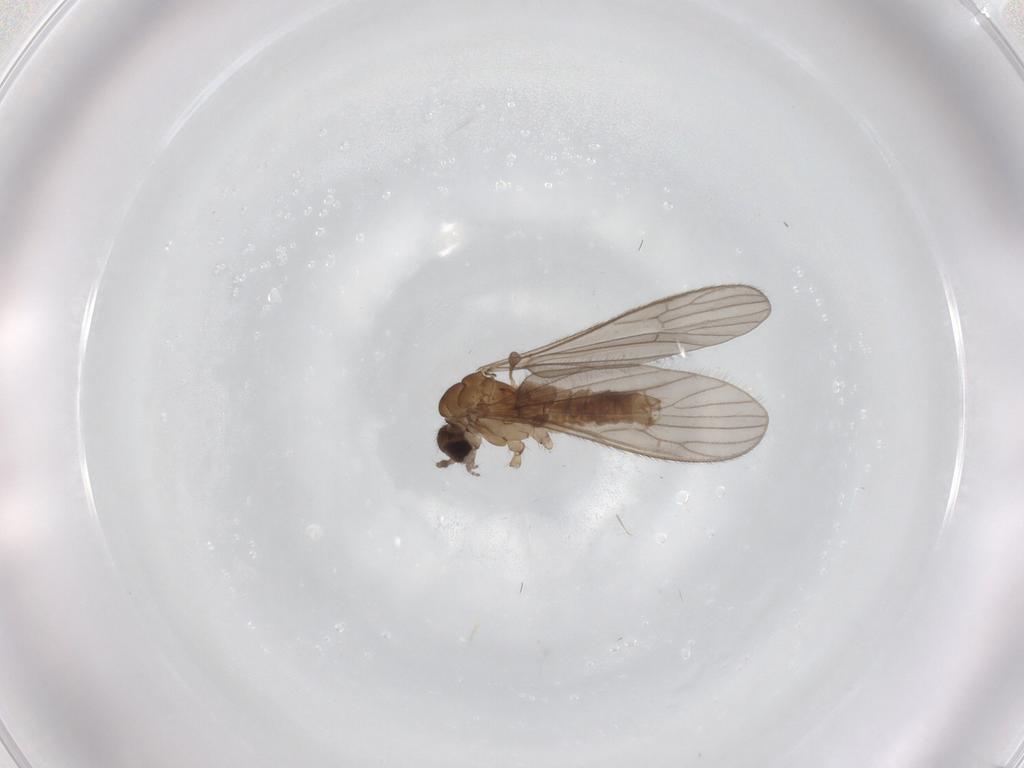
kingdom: Animalia
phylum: Arthropoda
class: Insecta
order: Diptera
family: Limoniidae
